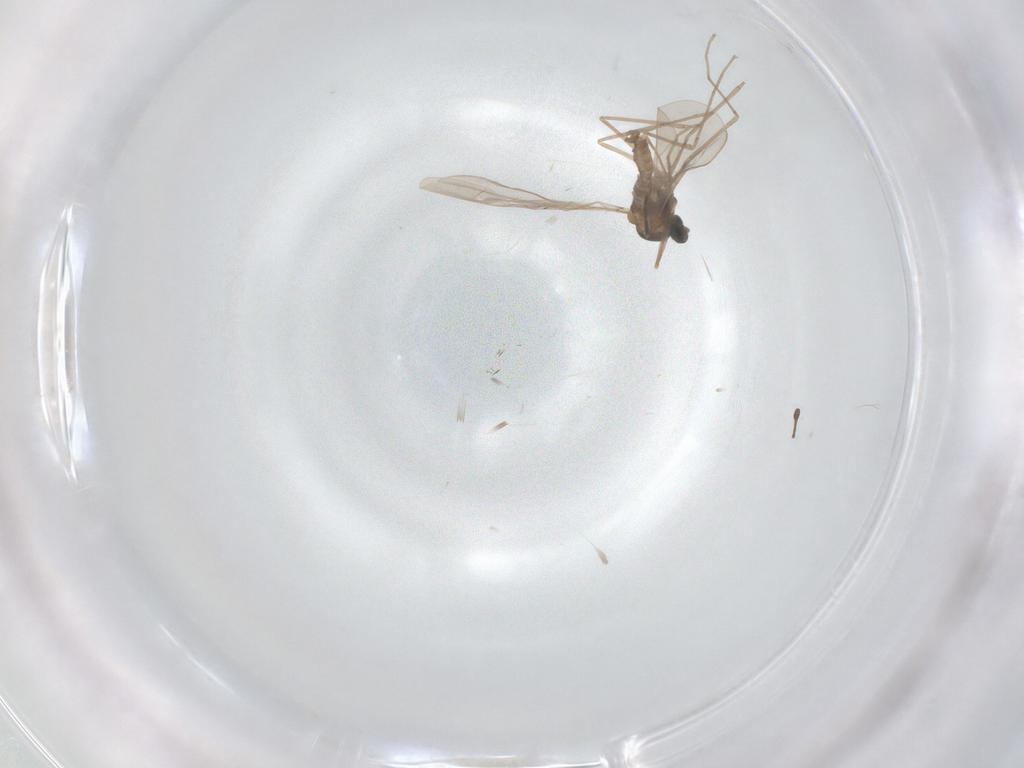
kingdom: Animalia
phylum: Arthropoda
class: Insecta
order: Diptera
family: Cecidomyiidae
